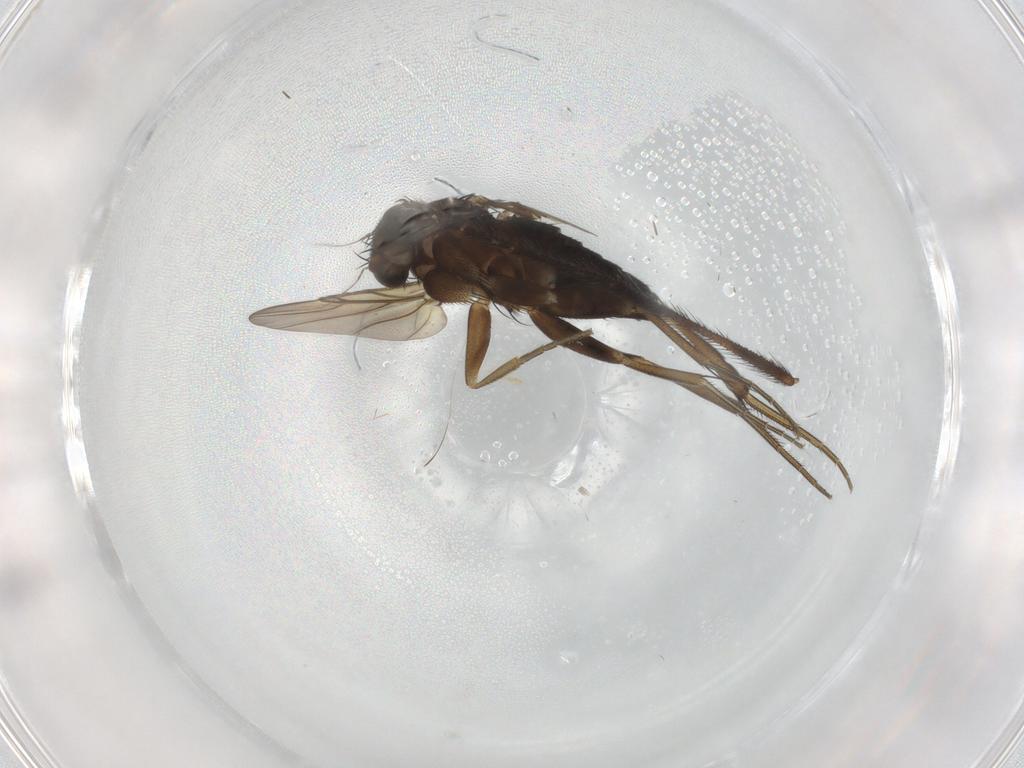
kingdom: Animalia
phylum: Arthropoda
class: Insecta
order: Diptera
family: Phoridae
